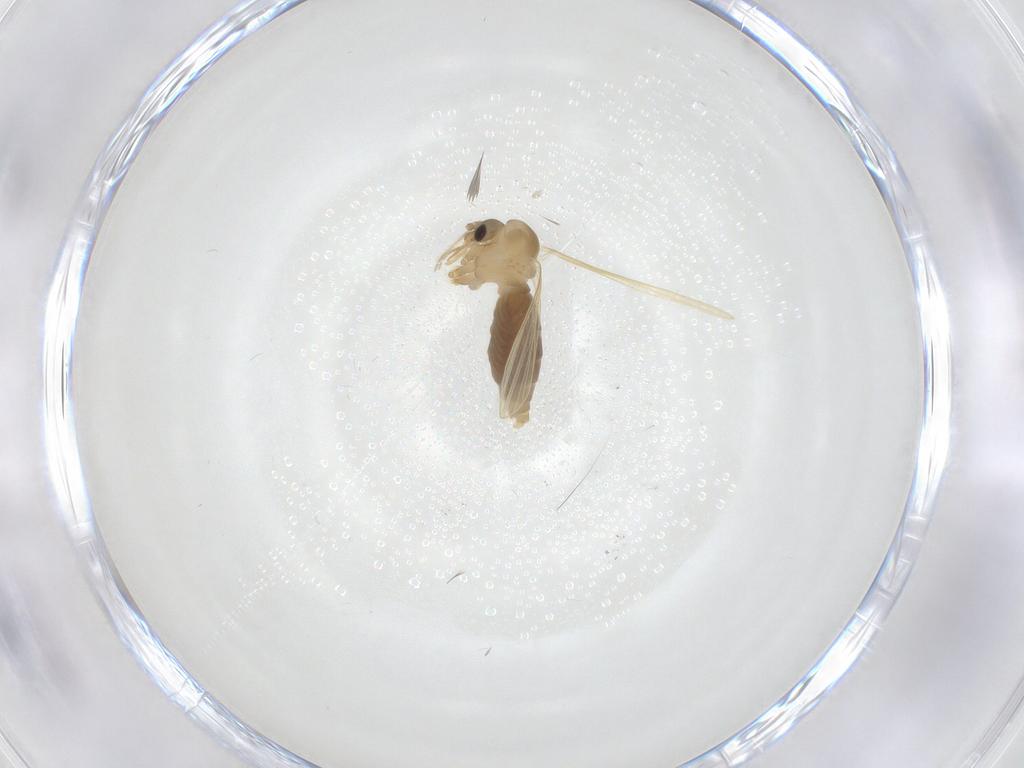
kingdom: Animalia
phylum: Arthropoda
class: Insecta
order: Diptera
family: Psychodidae
